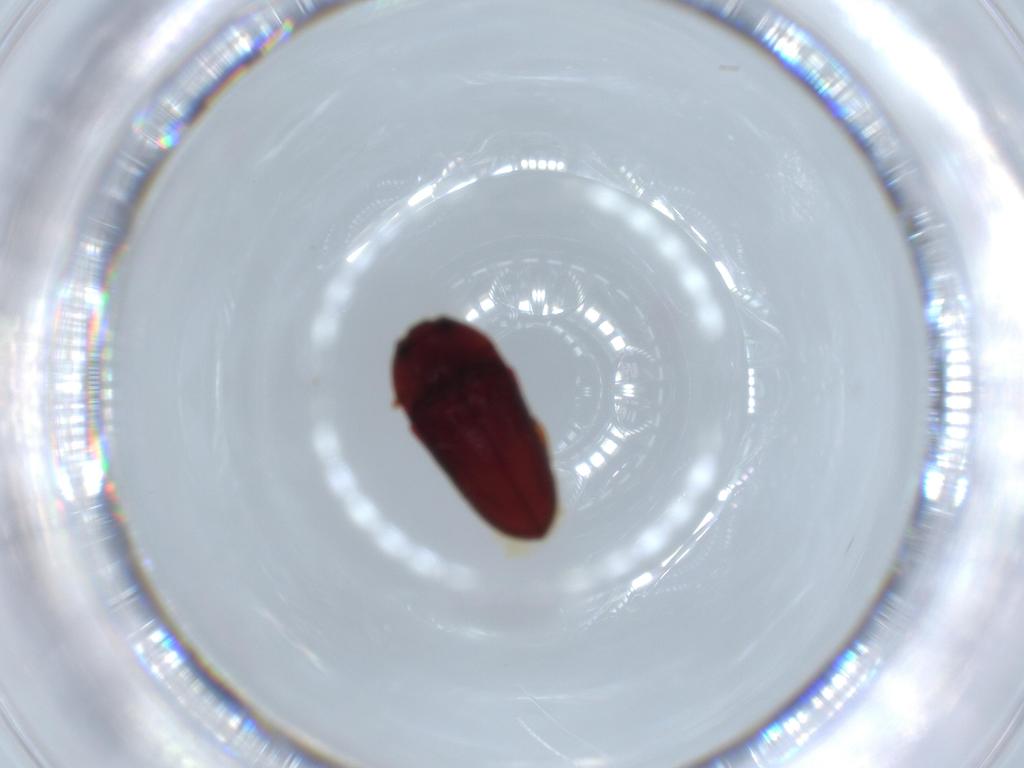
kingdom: Animalia
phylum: Arthropoda
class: Insecta
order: Coleoptera
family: Throscidae
